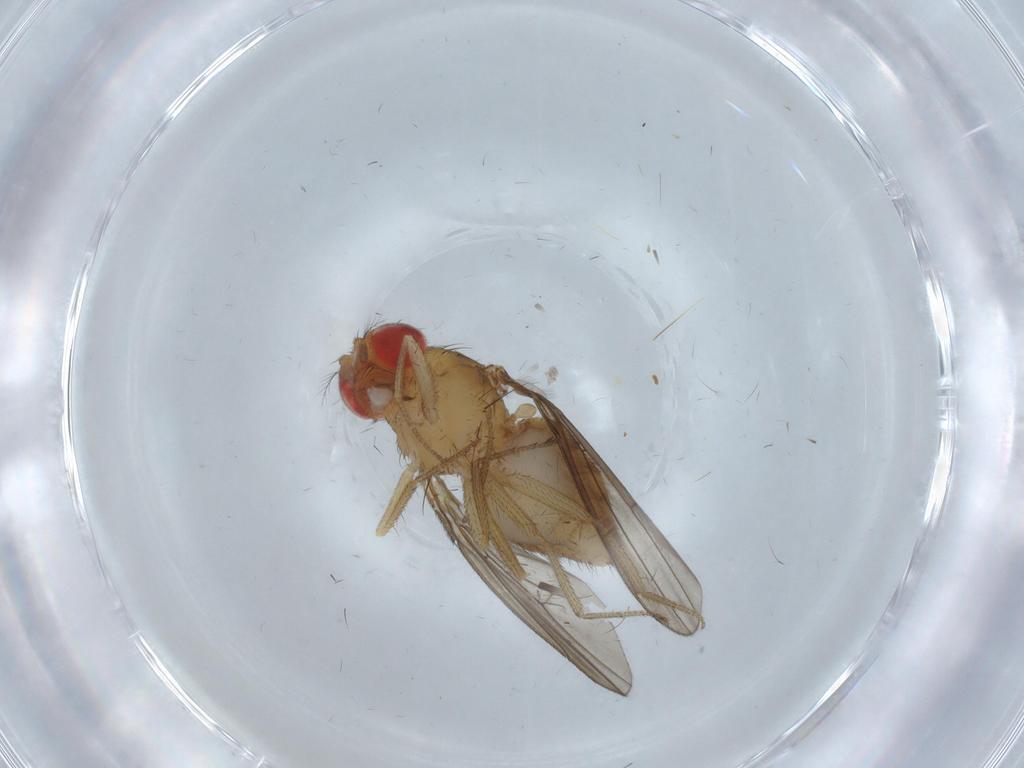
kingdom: Animalia
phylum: Arthropoda
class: Insecta
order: Diptera
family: Drosophilidae
